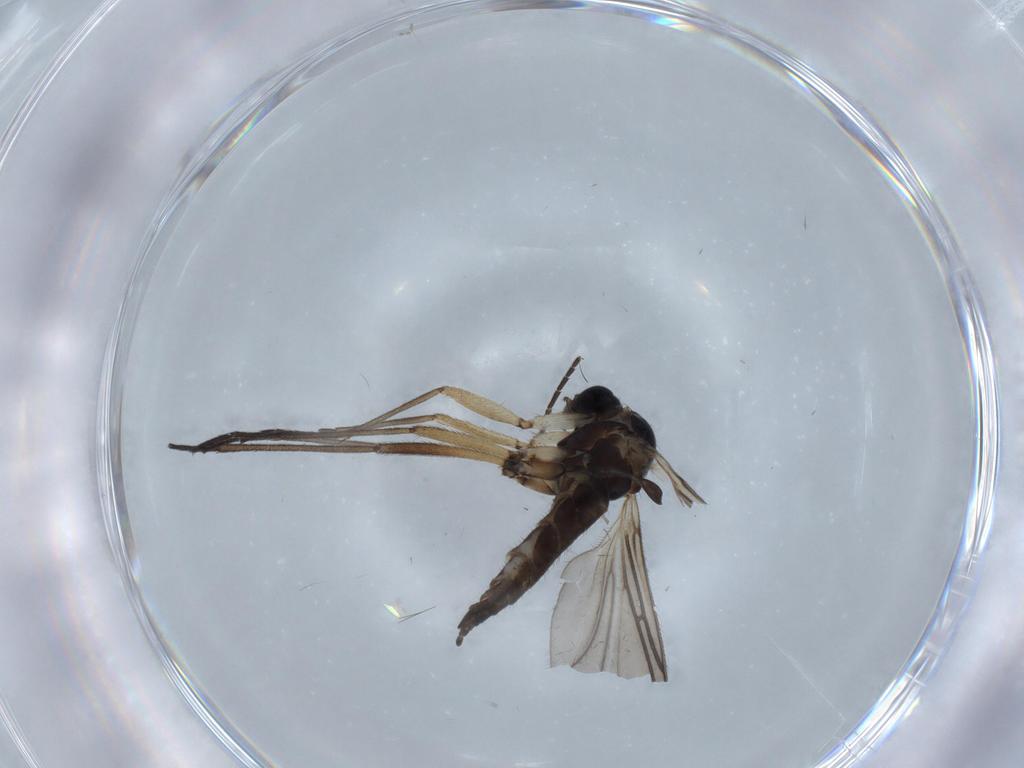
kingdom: Animalia
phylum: Arthropoda
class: Insecta
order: Diptera
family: Sciaridae
